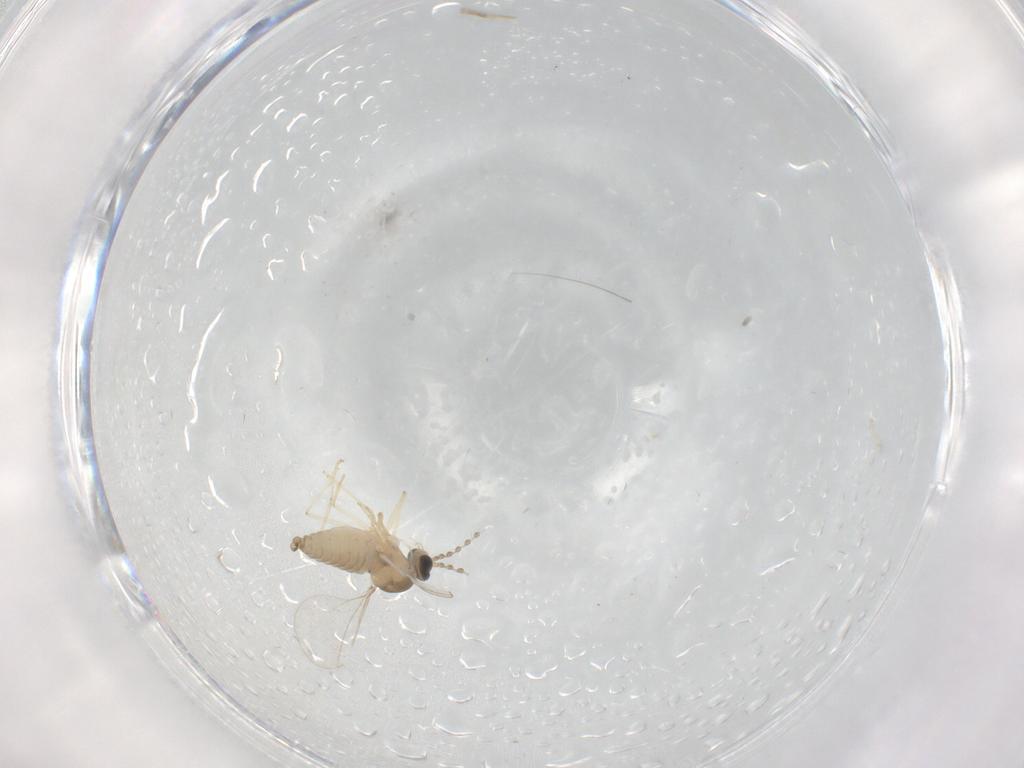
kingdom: Animalia
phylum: Arthropoda
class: Insecta
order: Diptera
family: Cecidomyiidae
